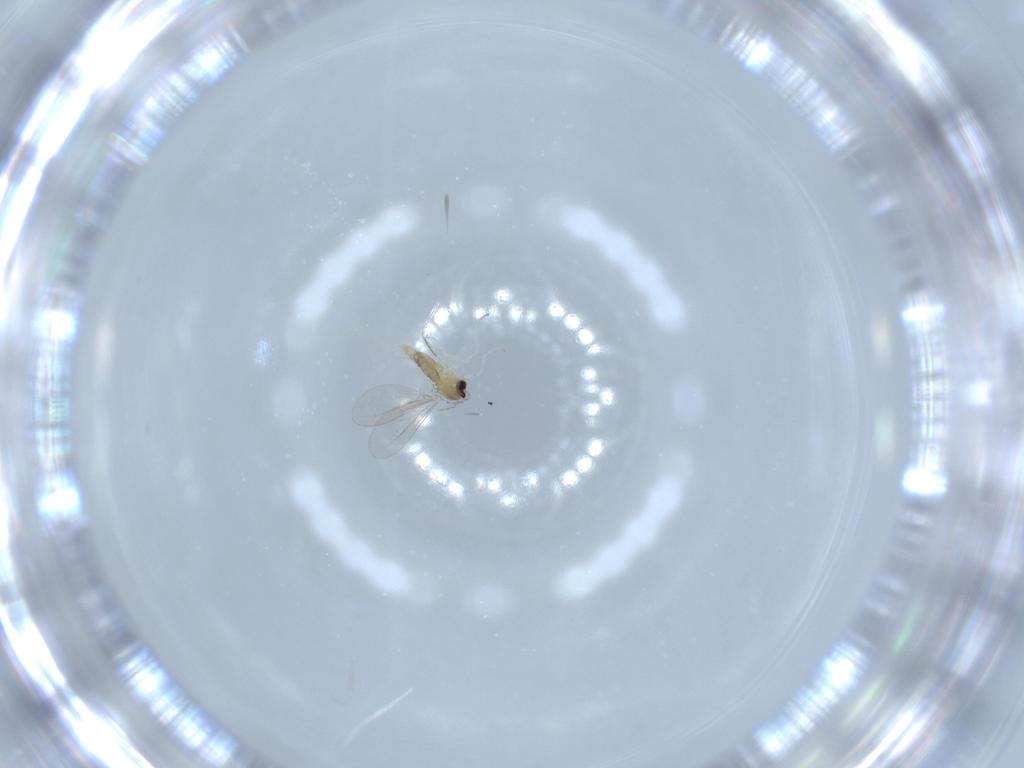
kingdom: Animalia
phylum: Arthropoda
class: Insecta
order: Diptera
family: Cecidomyiidae
